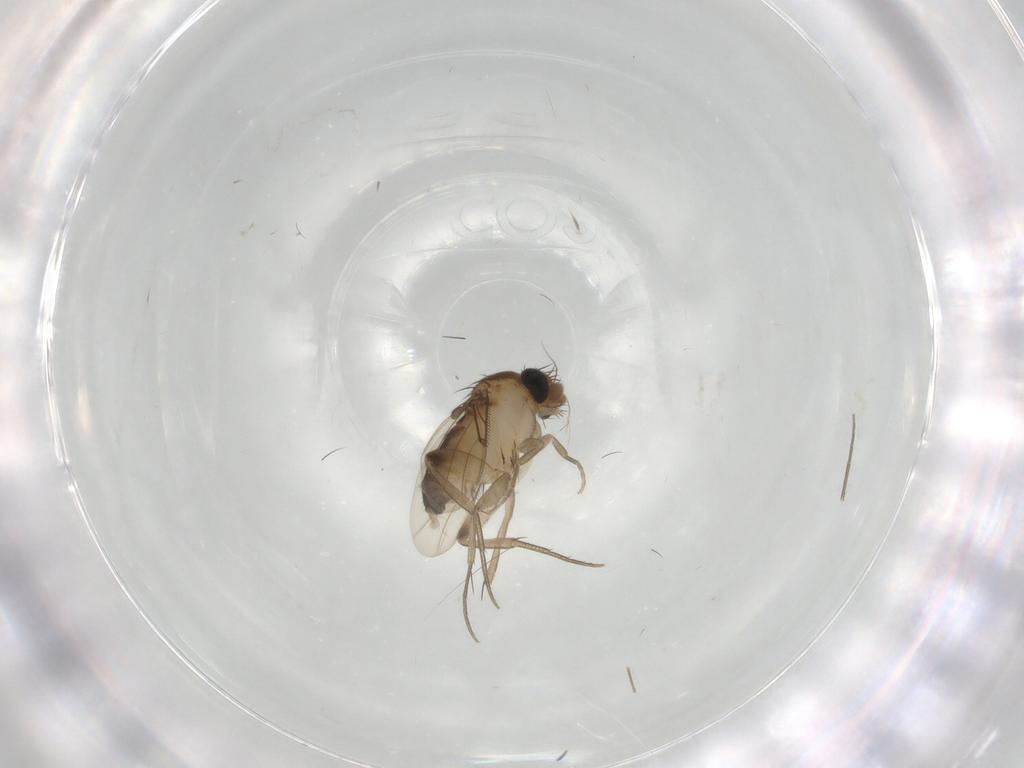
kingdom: Animalia
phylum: Arthropoda
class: Insecta
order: Diptera
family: Phoridae
